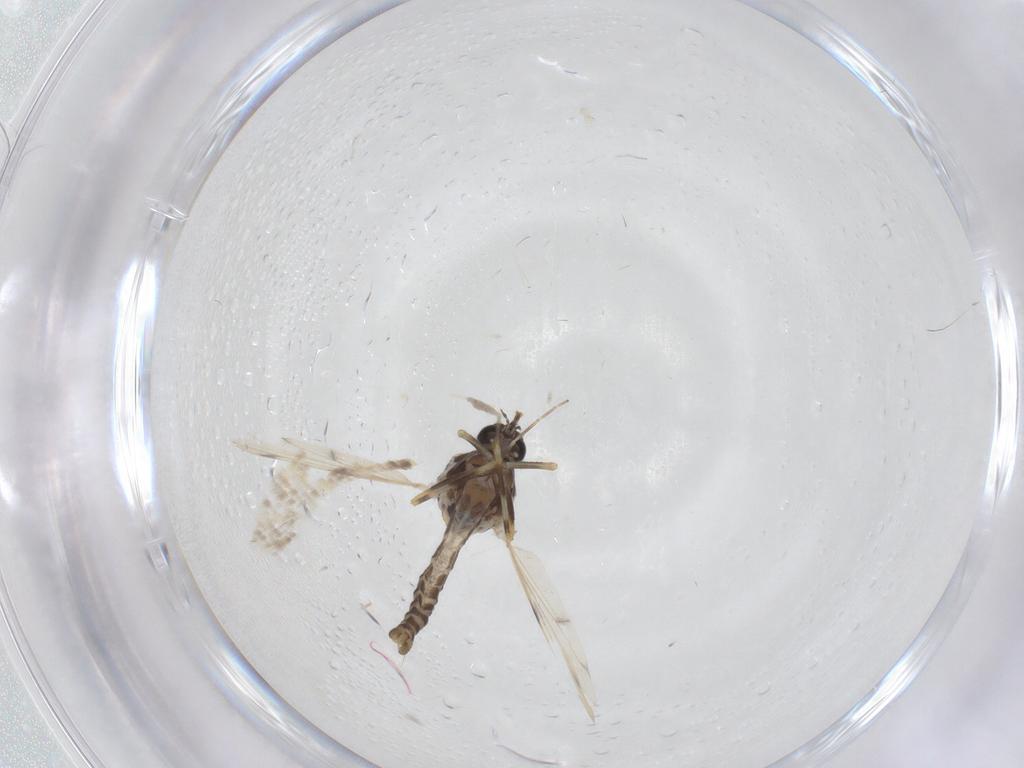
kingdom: Animalia
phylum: Arthropoda
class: Insecta
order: Diptera
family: Ceratopogonidae
